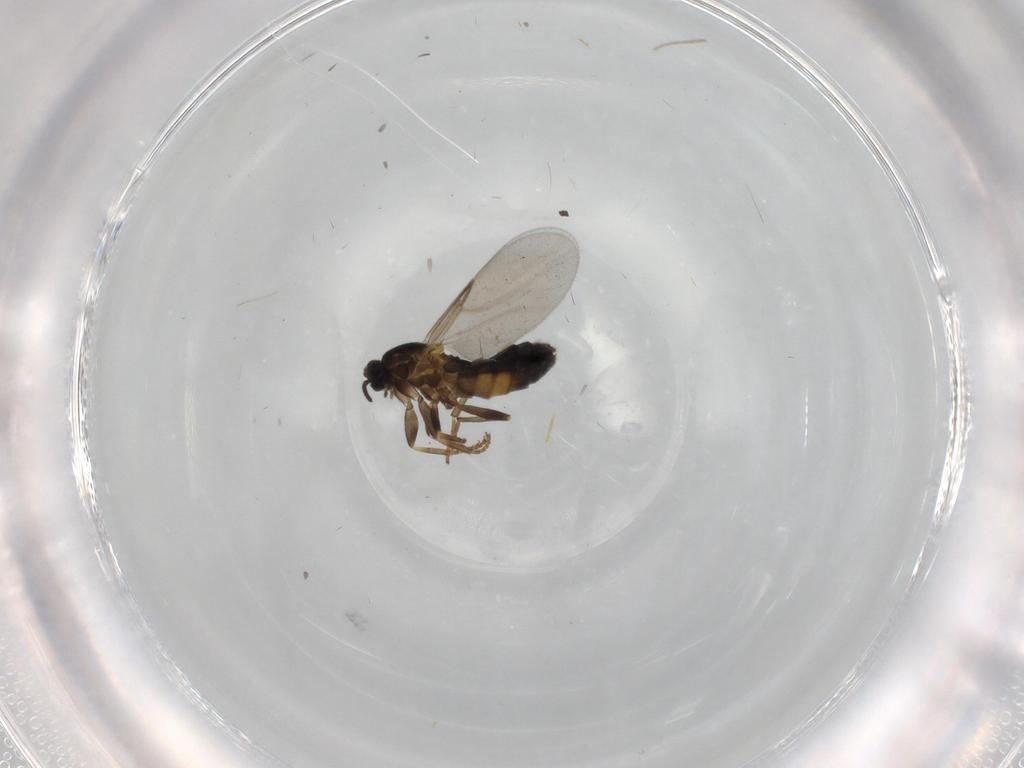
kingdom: Animalia
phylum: Arthropoda
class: Insecta
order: Diptera
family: Scatopsidae
